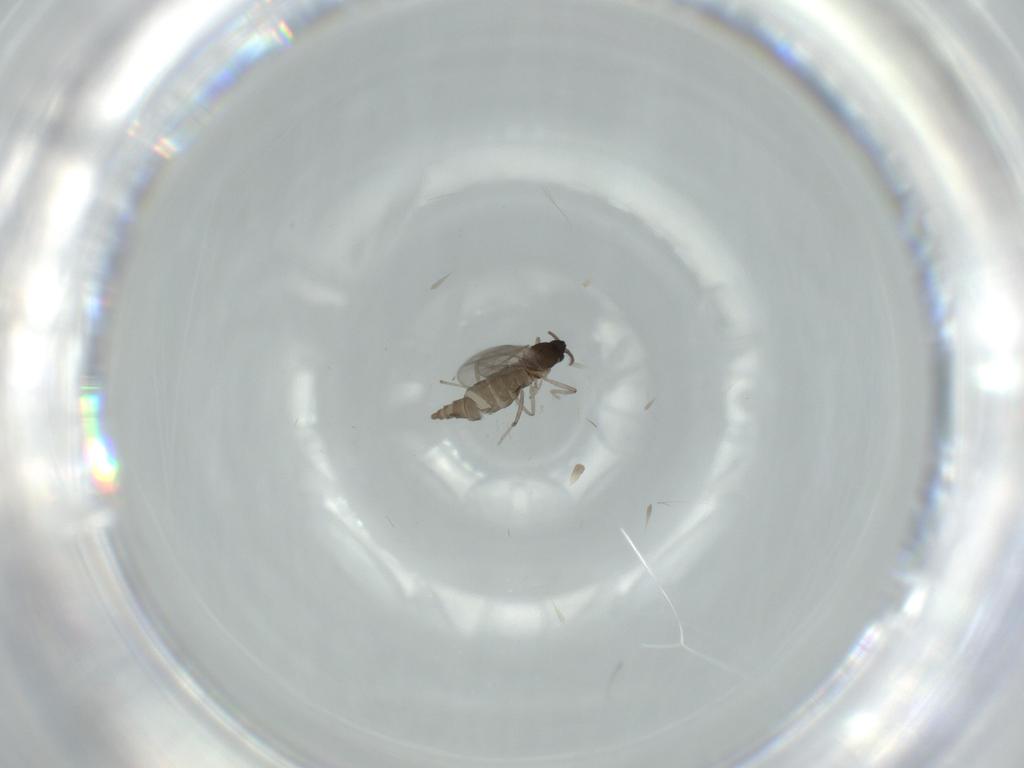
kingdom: Animalia
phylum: Arthropoda
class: Insecta
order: Diptera
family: Cecidomyiidae
